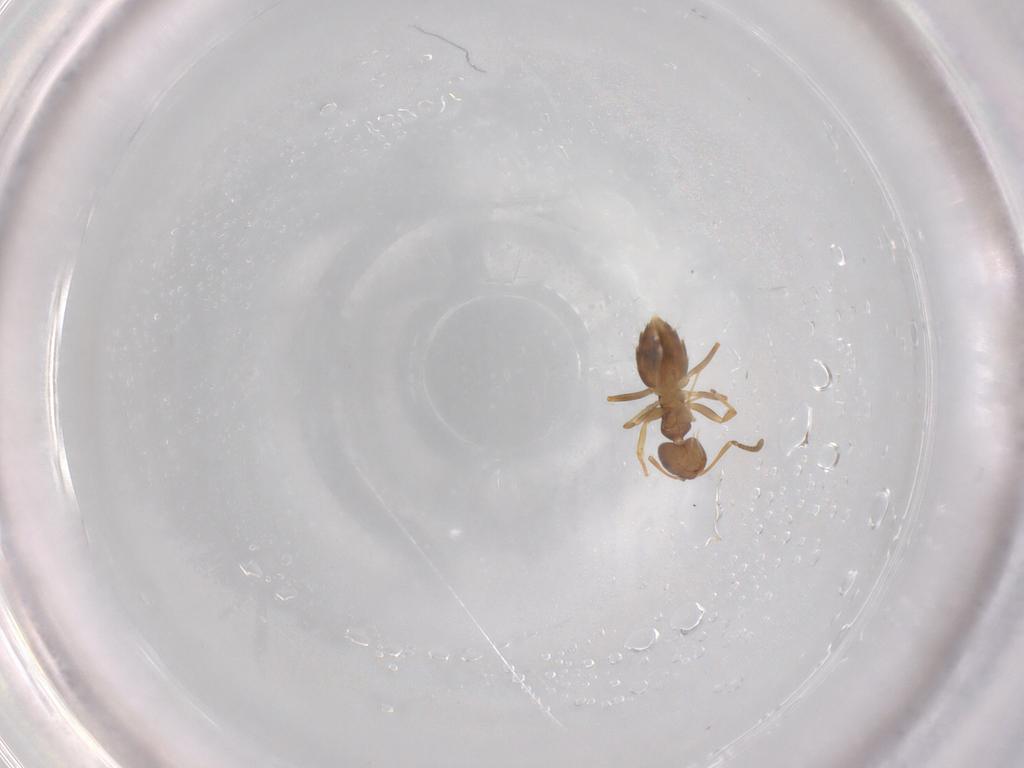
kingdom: Animalia
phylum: Arthropoda
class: Insecta
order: Hymenoptera
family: Formicidae
